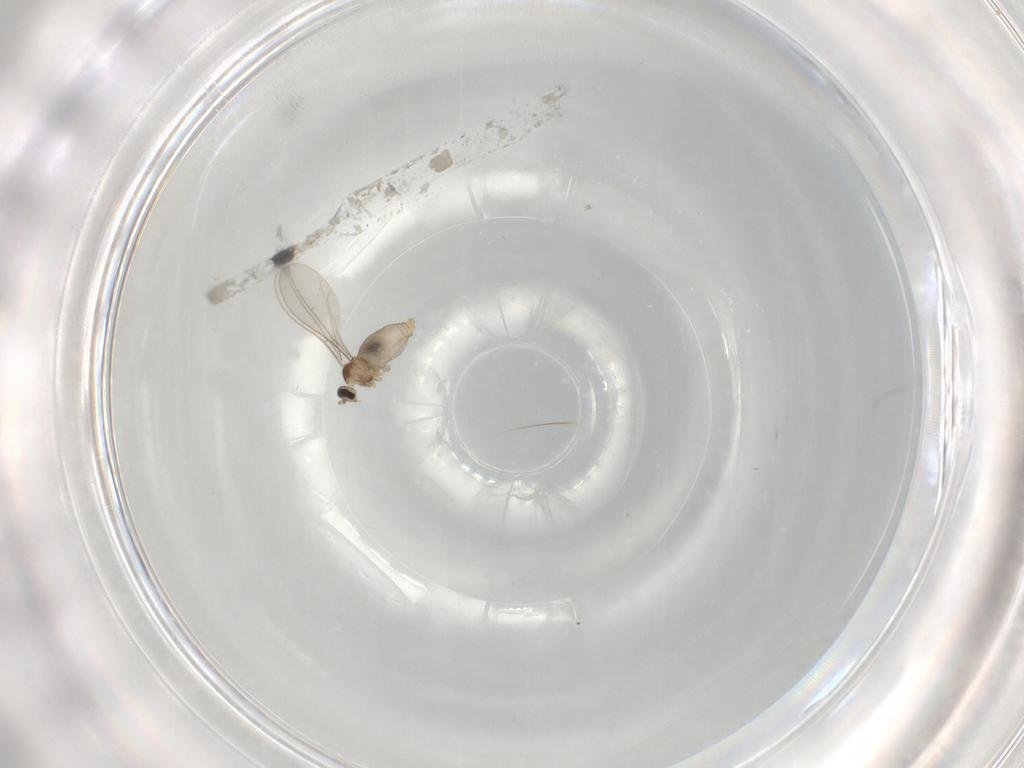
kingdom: Animalia
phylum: Arthropoda
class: Insecta
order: Diptera
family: Cecidomyiidae
